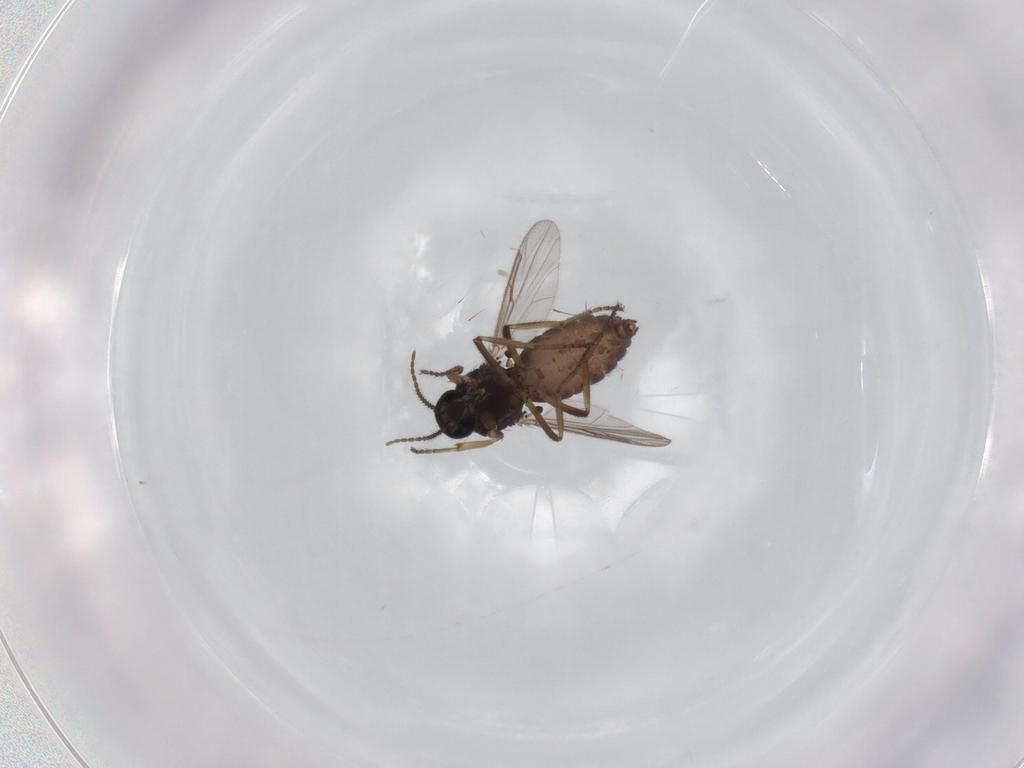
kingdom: Animalia
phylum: Arthropoda
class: Insecta
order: Diptera
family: Ceratopogonidae
